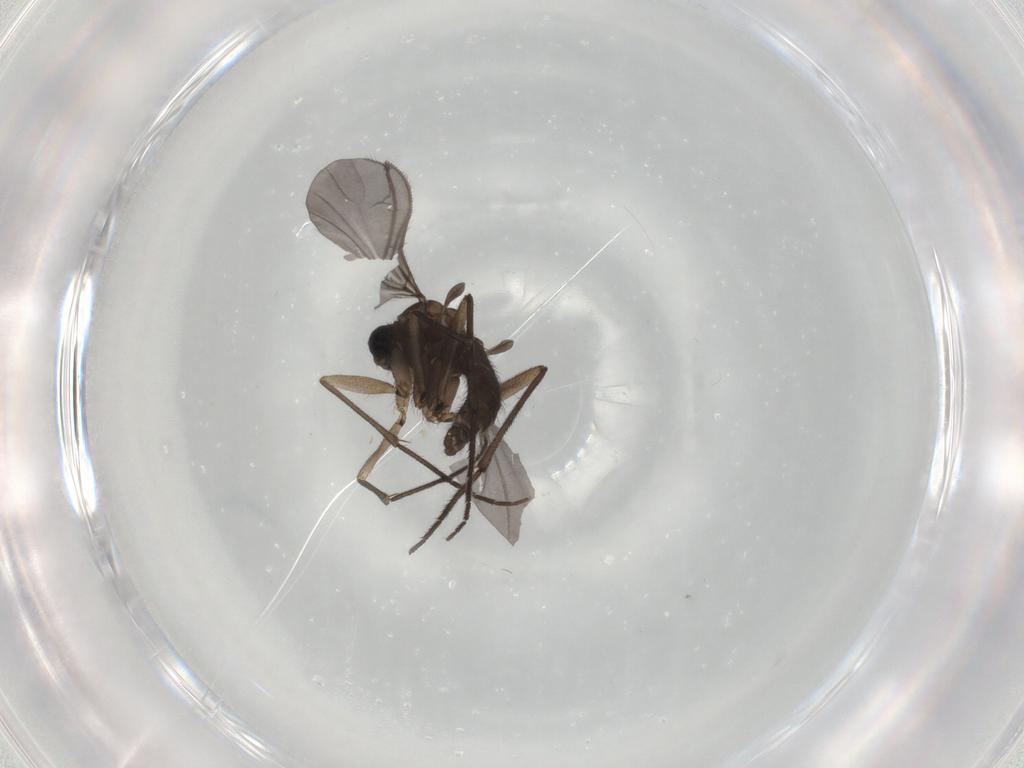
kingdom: Animalia
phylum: Arthropoda
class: Insecta
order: Diptera
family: Sciaridae
